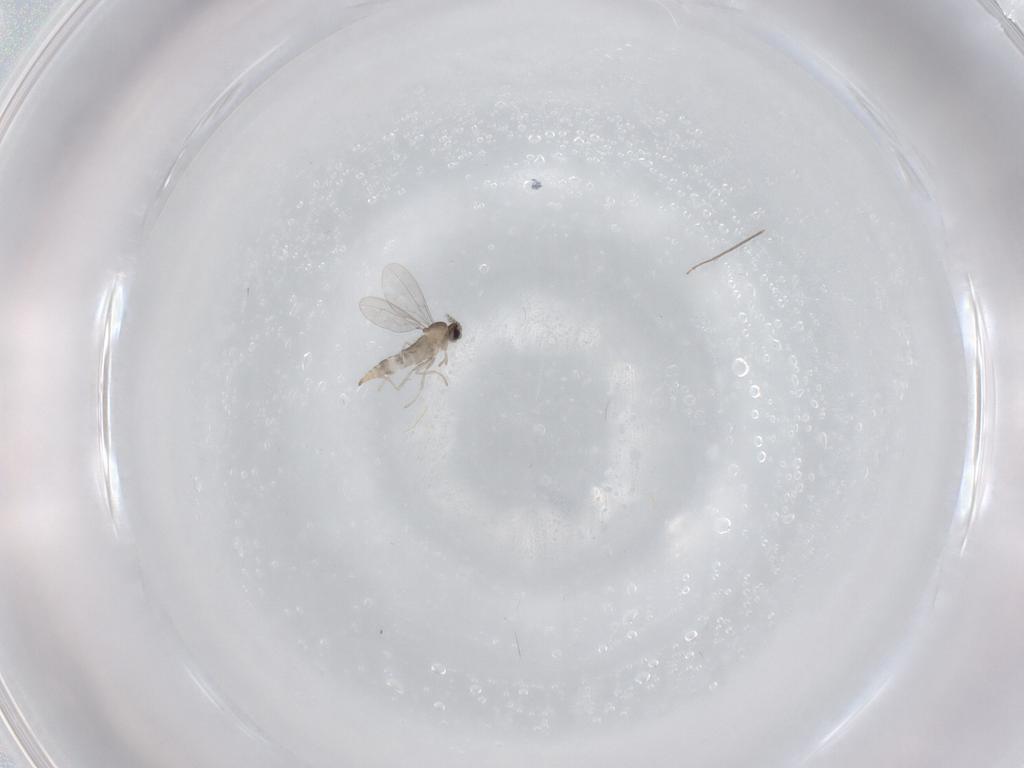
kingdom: Animalia
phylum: Arthropoda
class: Insecta
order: Diptera
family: Cecidomyiidae
